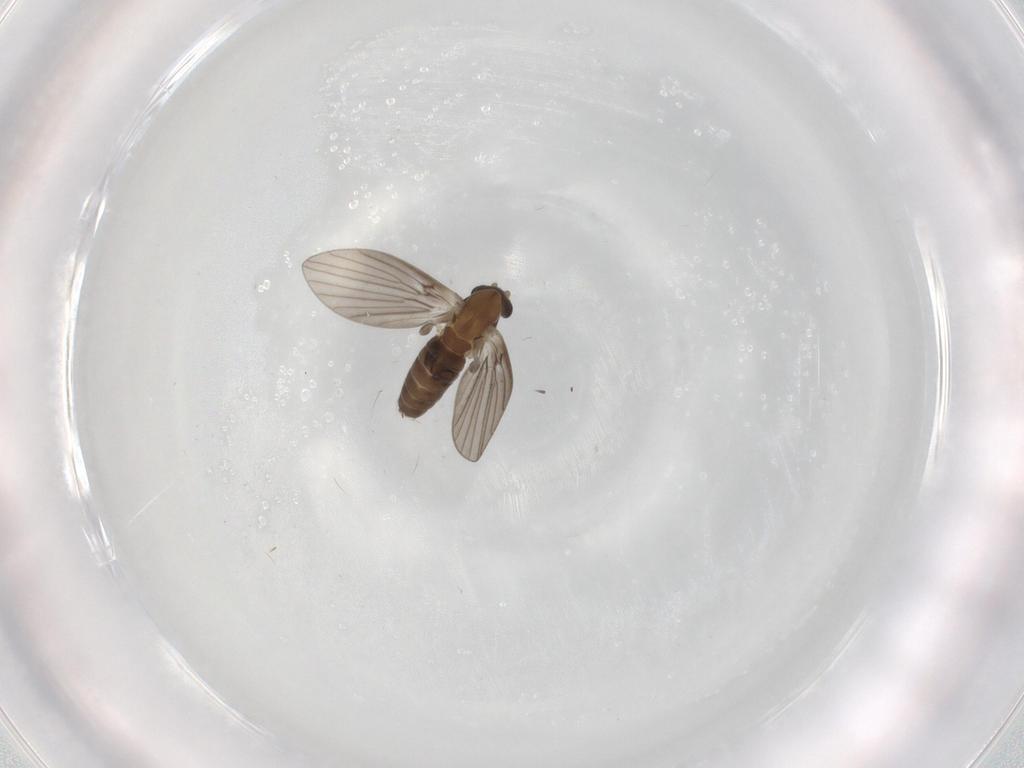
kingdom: Animalia
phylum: Arthropoda
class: Insecta
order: Diptera
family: Psychodidae
